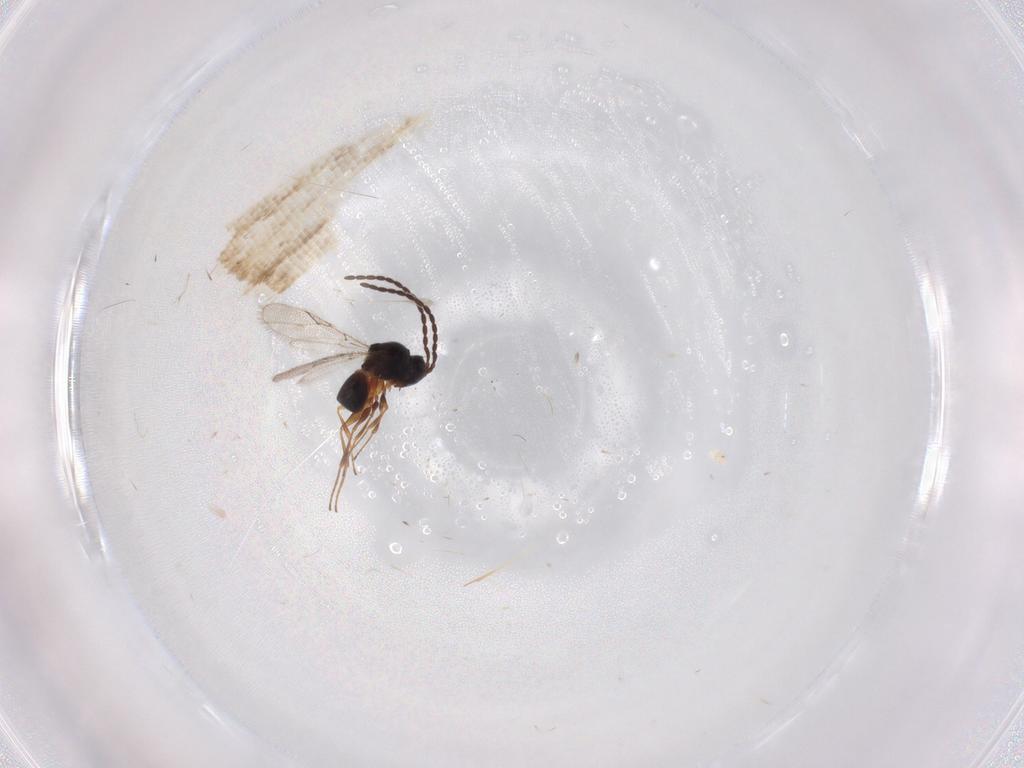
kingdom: Animalia
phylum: Arthropoda
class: Insecta
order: Hymenoptera
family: Figitidae
